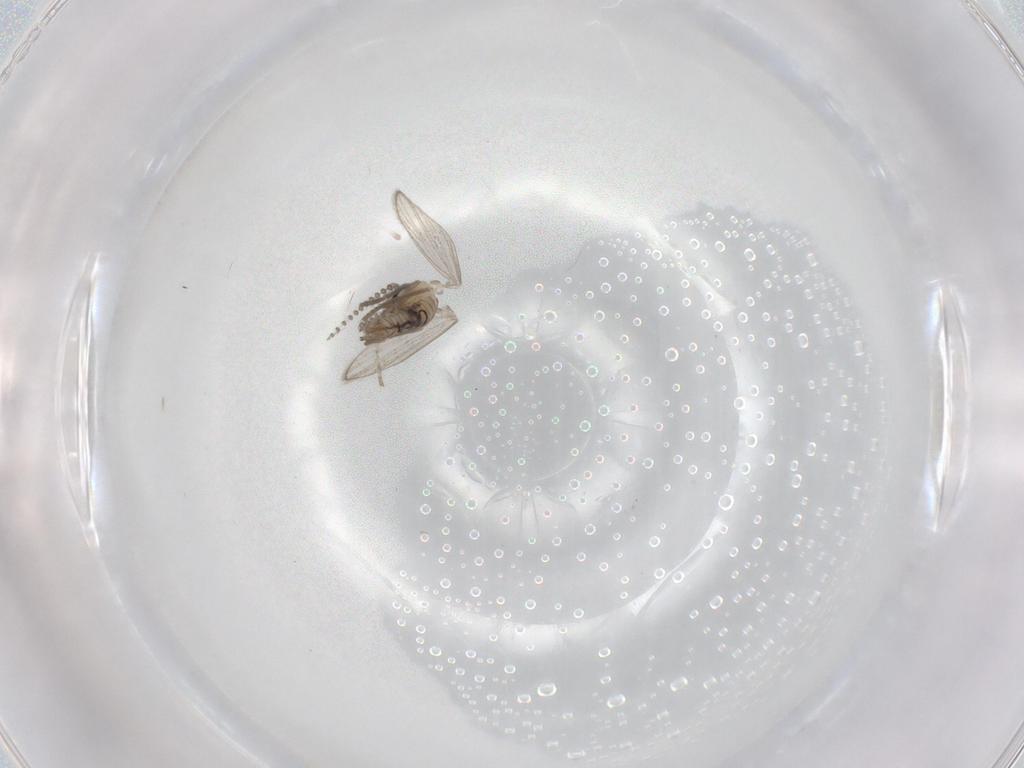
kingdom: Animalia
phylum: Arthropoda
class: Insecta
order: Diptera
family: Psychodidae
